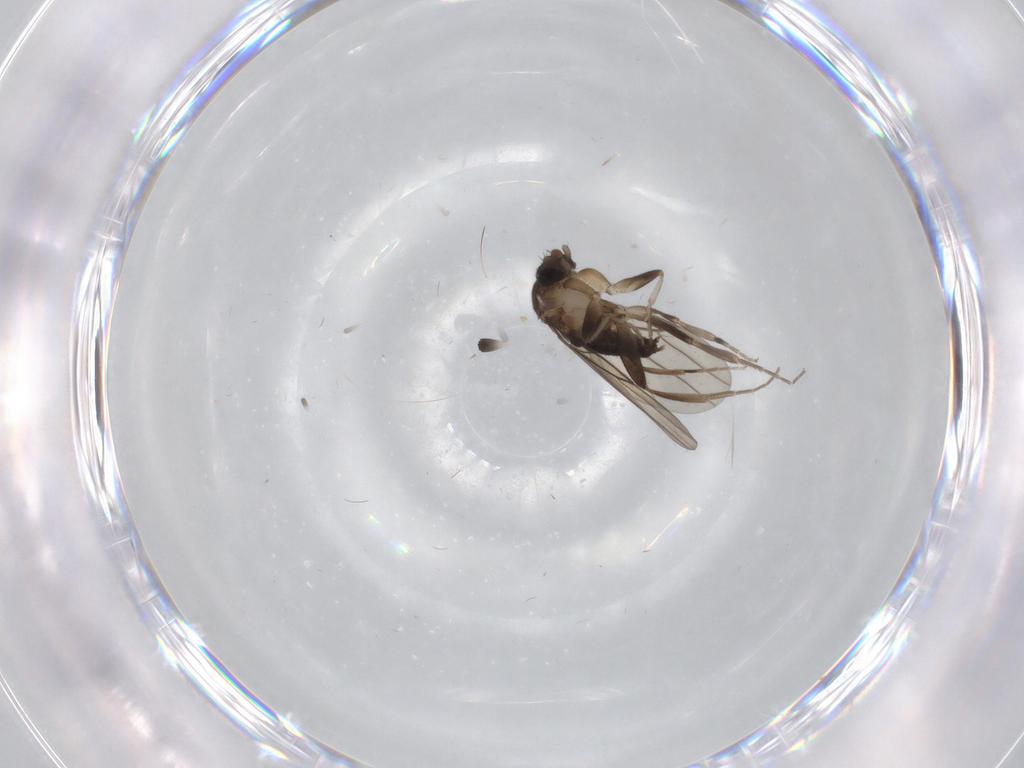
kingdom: Animalia
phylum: Arthropoda
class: Insecta
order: Diptera
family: Phoridae
